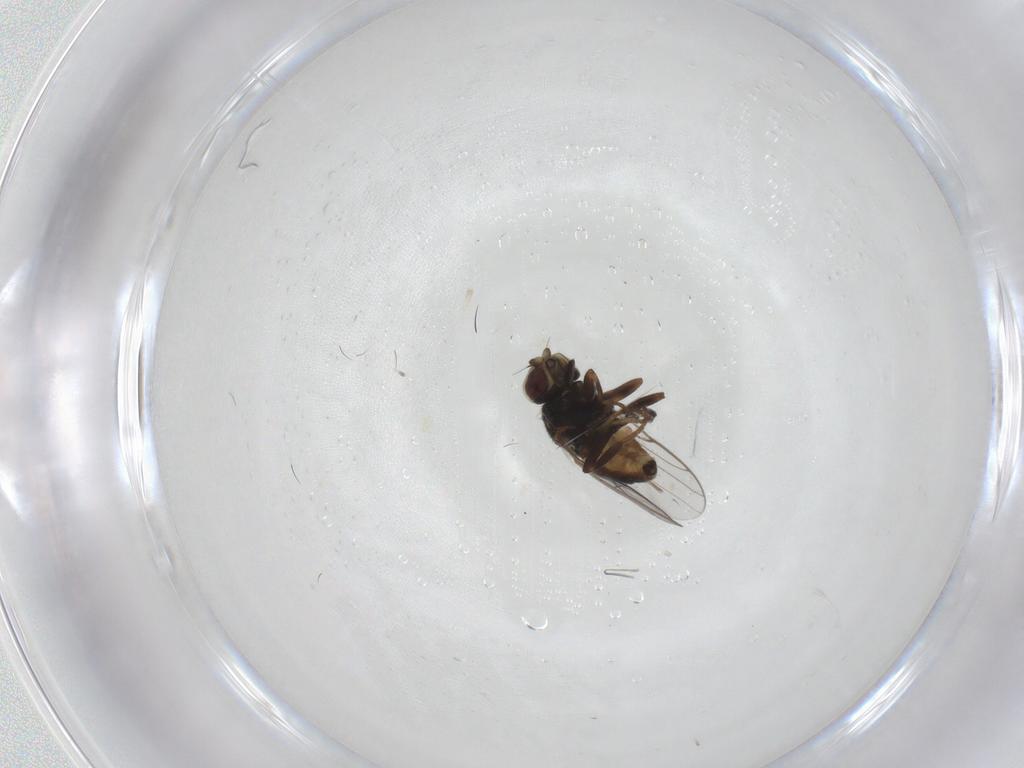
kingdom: Animalia
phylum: Arthropoda
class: Insecta
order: Diptera
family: Chloropidae
